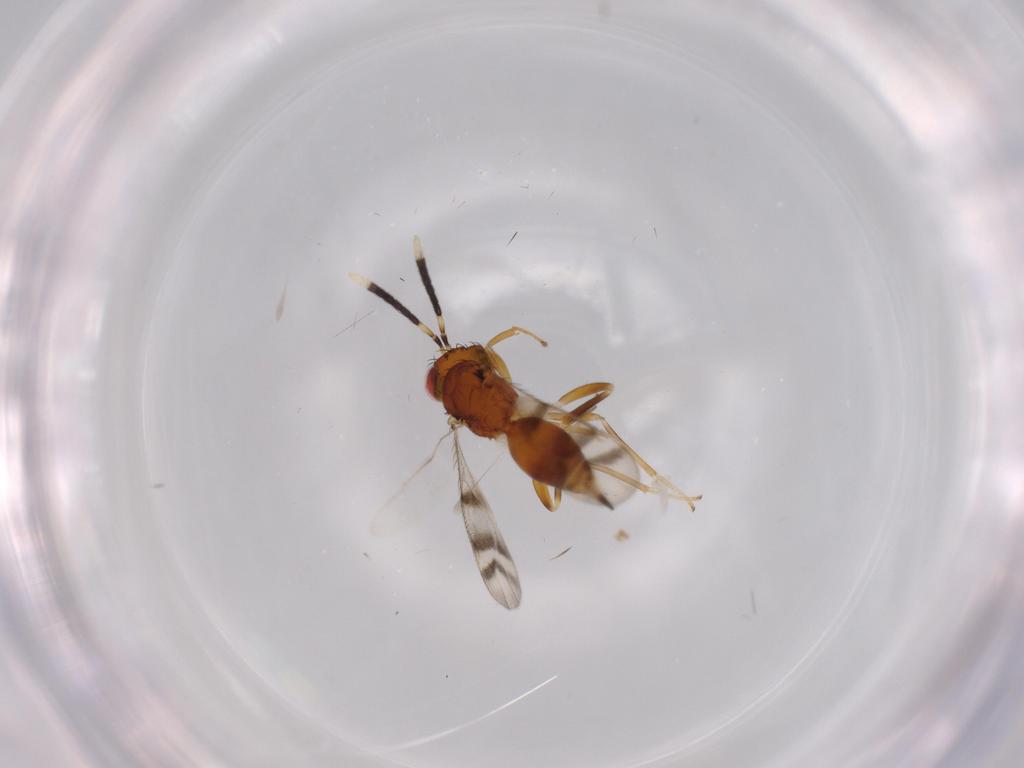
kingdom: Animalia
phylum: Arthropoda
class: Insecta
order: Hymenoptera
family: Diparidae
